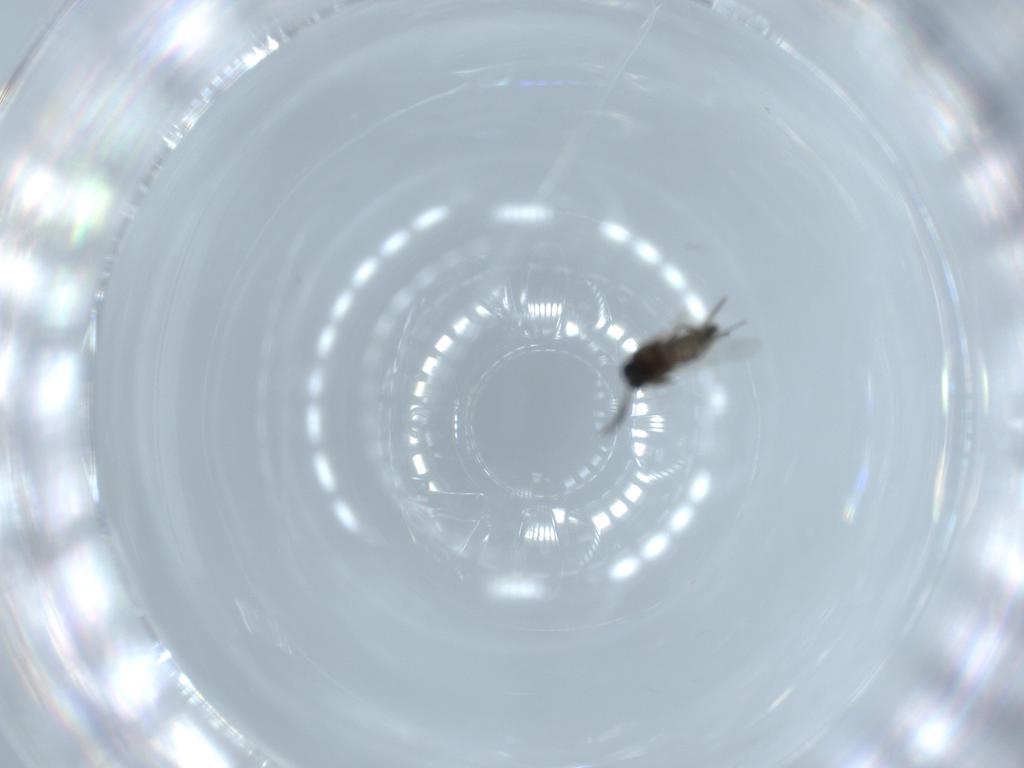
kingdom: Animalia
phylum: Arthropoda
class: Insecta
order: Diptera
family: Ceratopogonidae
